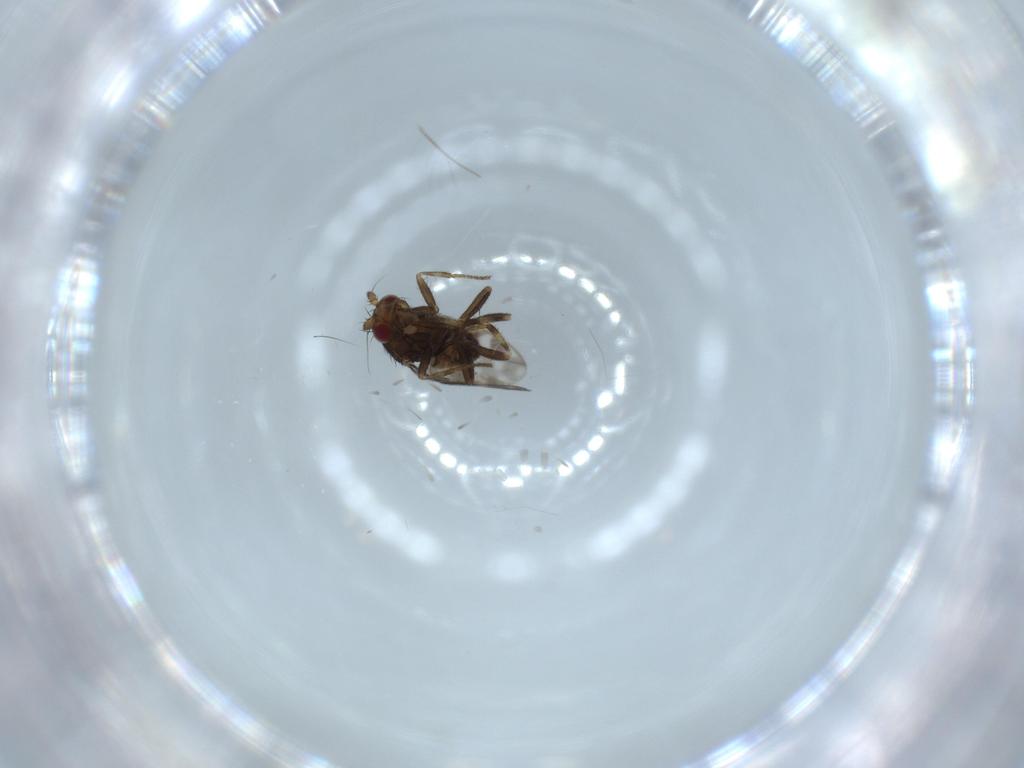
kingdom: Animalia
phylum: Arthropoda
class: Insecta
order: Diptera
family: Sphaeroceridae
